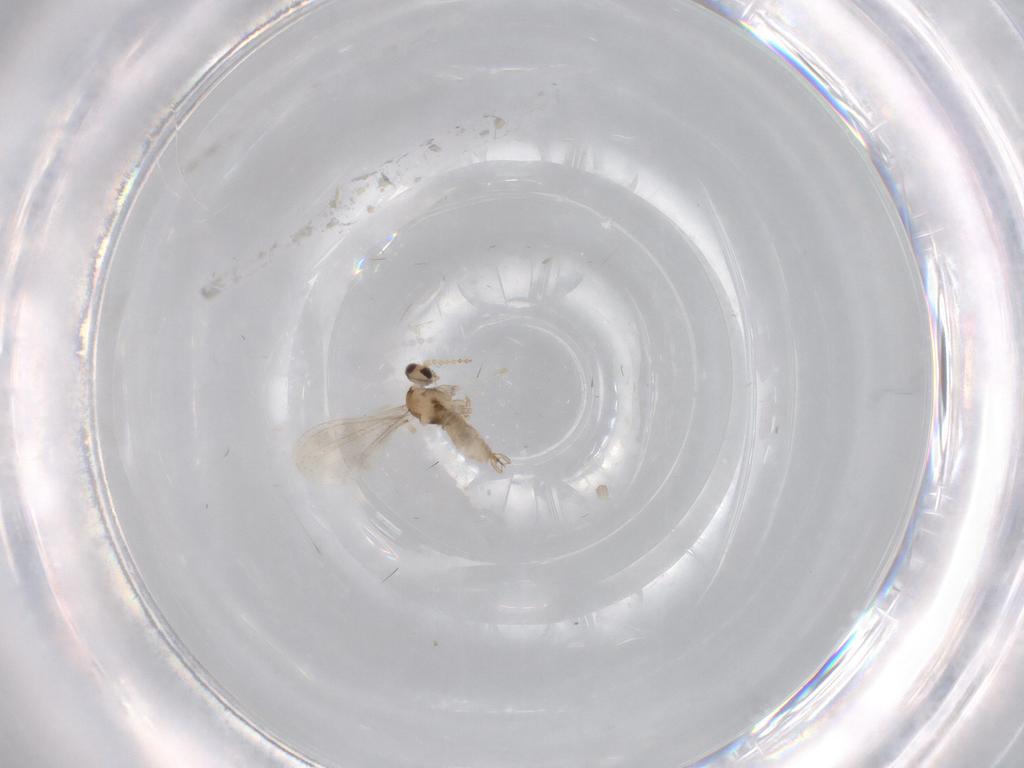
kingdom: Animalia
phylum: Arthropoda
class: Insecta
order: Diptera
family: Cecidomyiidae
